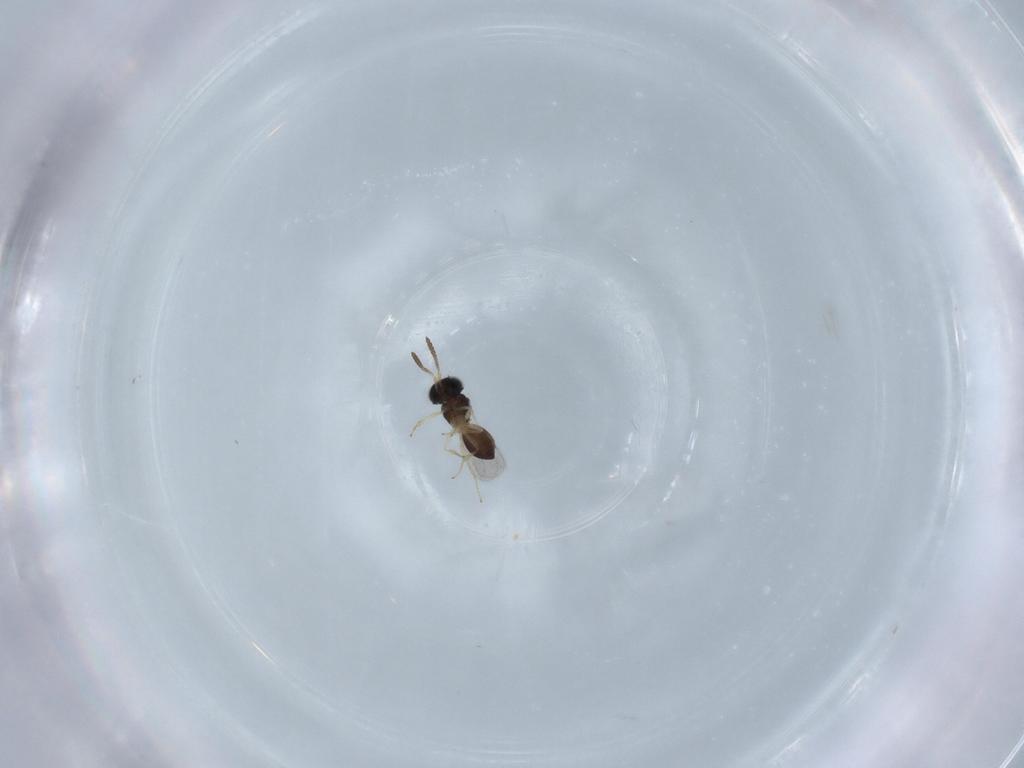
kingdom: Animalia
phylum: Arthropoda
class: Insecta
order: Hymenoptera
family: Scelionidae
